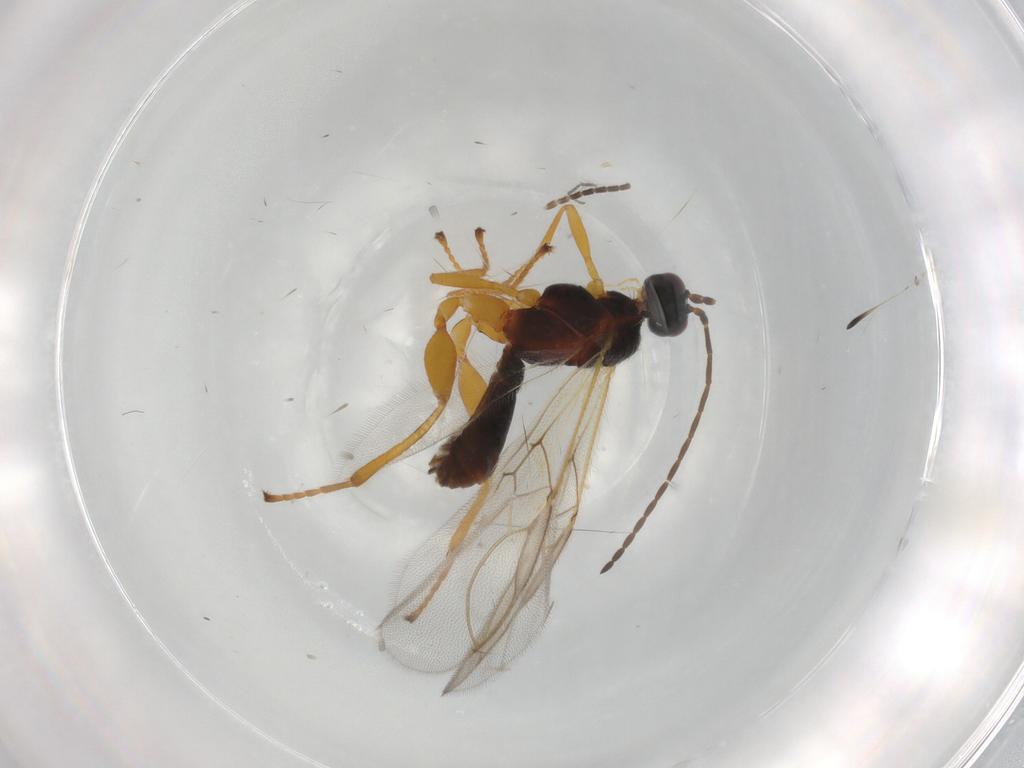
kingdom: Animalia
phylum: Arthropoda
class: Insecta
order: Hymenoptera
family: Braconidae
